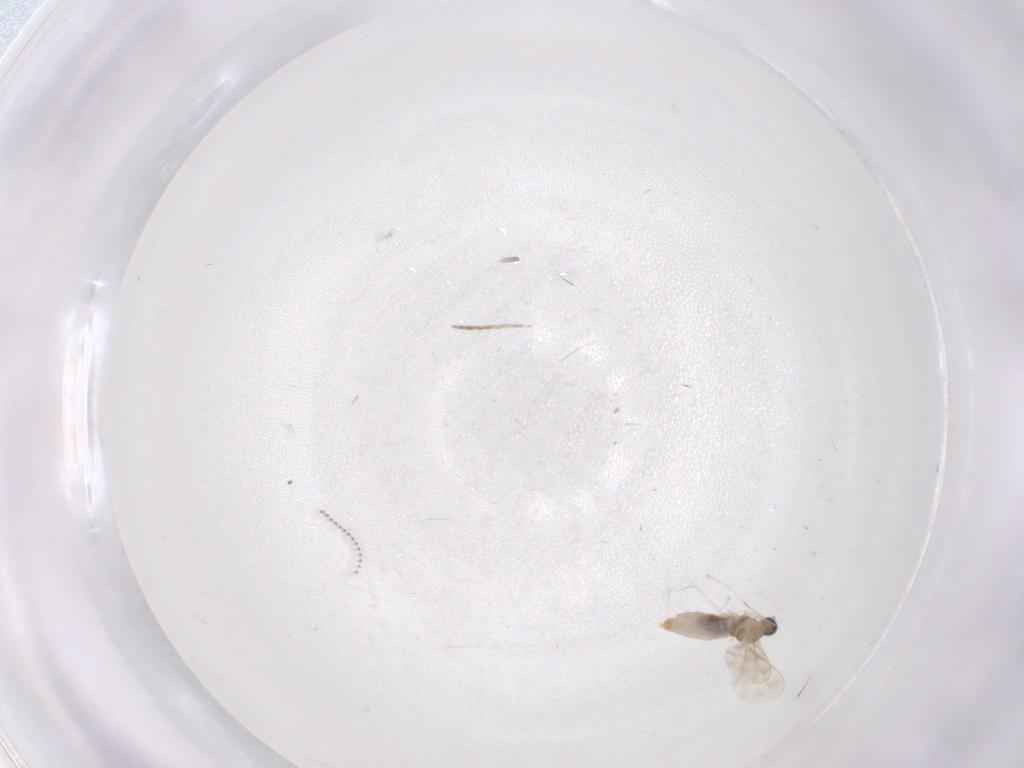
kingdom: Animalia
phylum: Arthropoda
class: Insecta
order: Diptera
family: Cecidomyiidae
